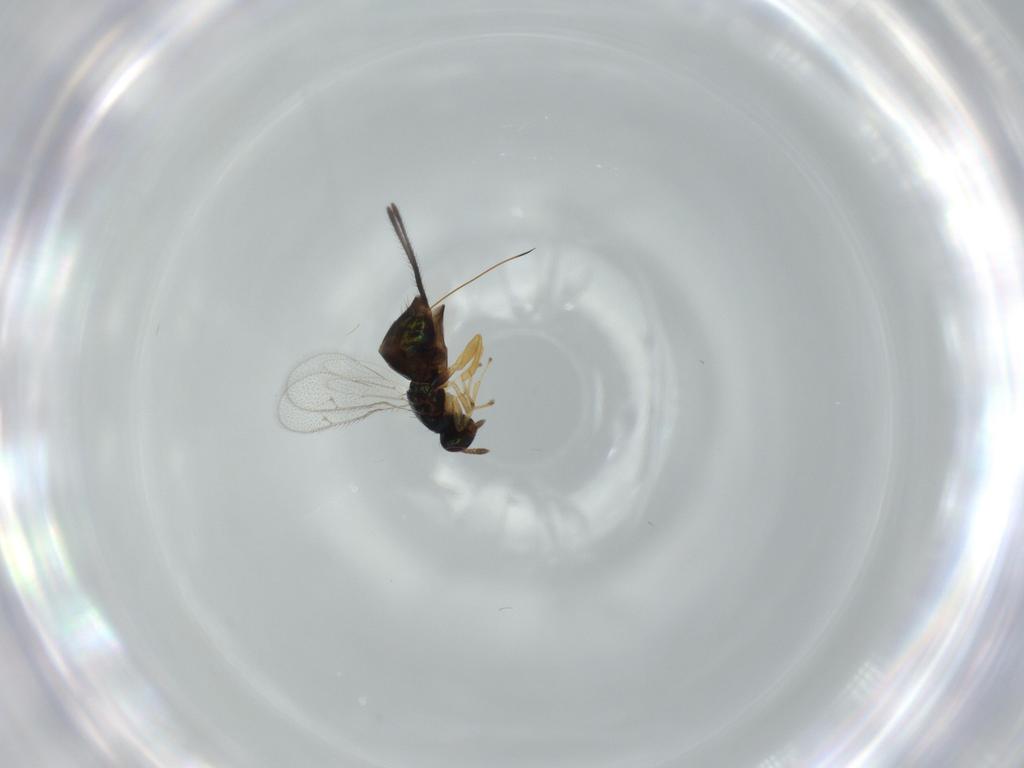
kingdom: Animalia
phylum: Arthropoda
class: Insecta
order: Hymenoptera
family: Torymidae
